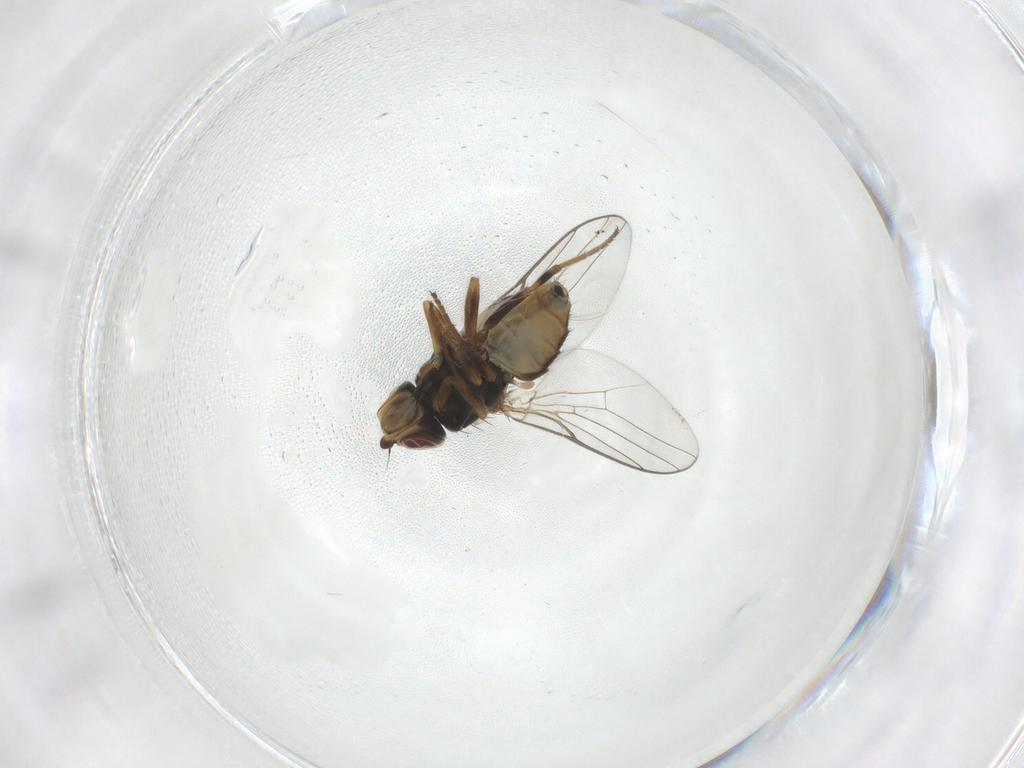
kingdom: Animalia
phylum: Arthropoda
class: Insecta
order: Diptera
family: Chloropidae
